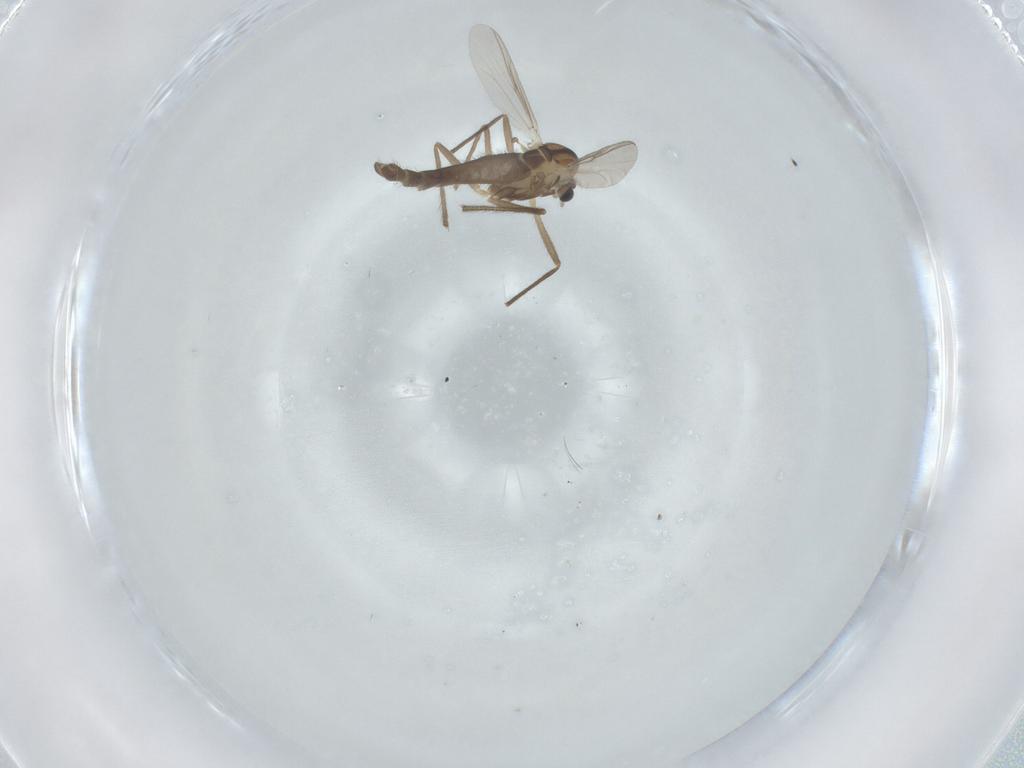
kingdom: Animalia
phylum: Arthropoda
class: Insecta
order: Diptera
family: Chironomidae
